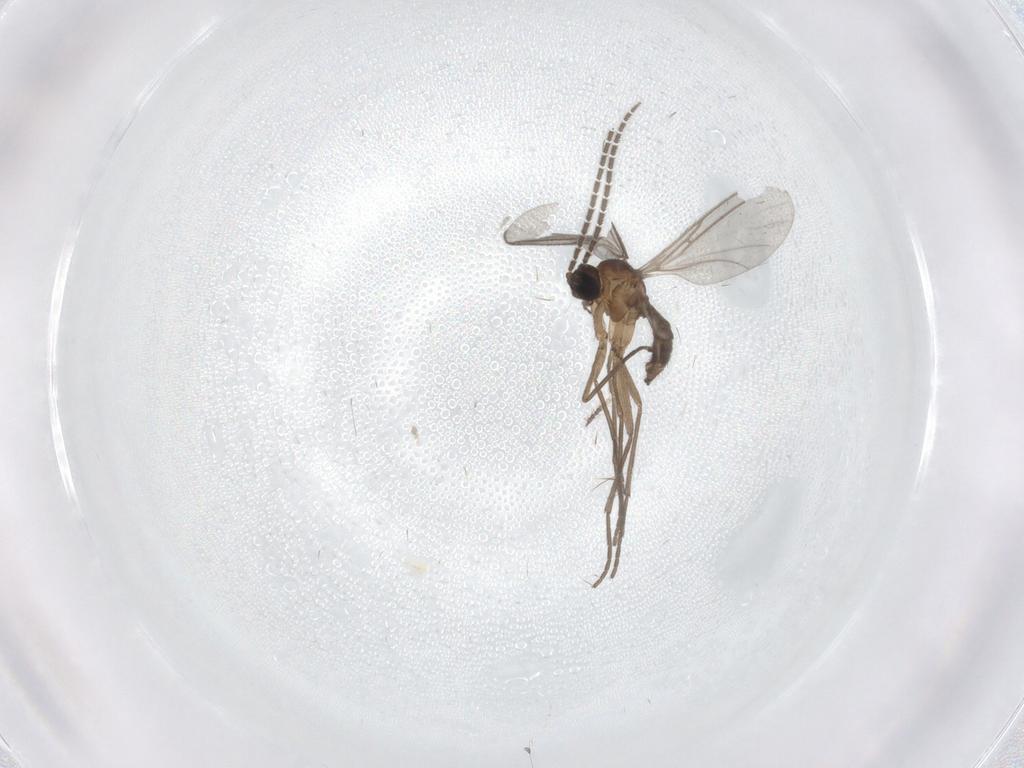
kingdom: Animalia
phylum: Arthropoda
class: Insecta
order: Diptera
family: Sciaridae
